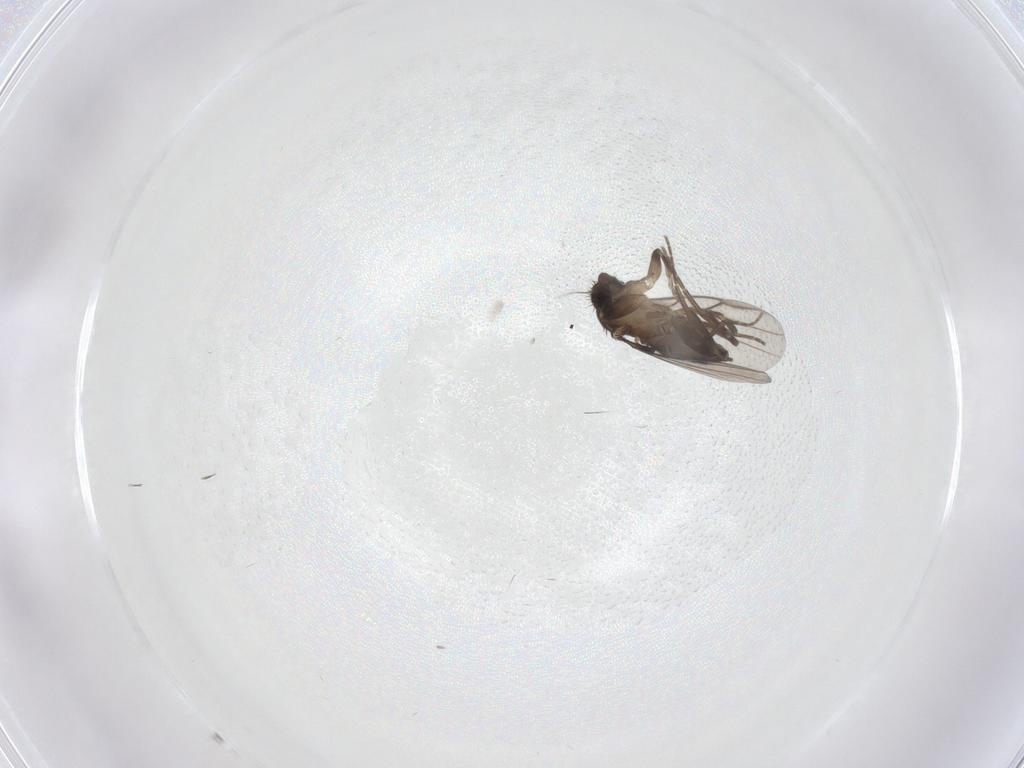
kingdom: Animalia
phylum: Arthropoda
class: Insecta
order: Diptera
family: Phoridae
